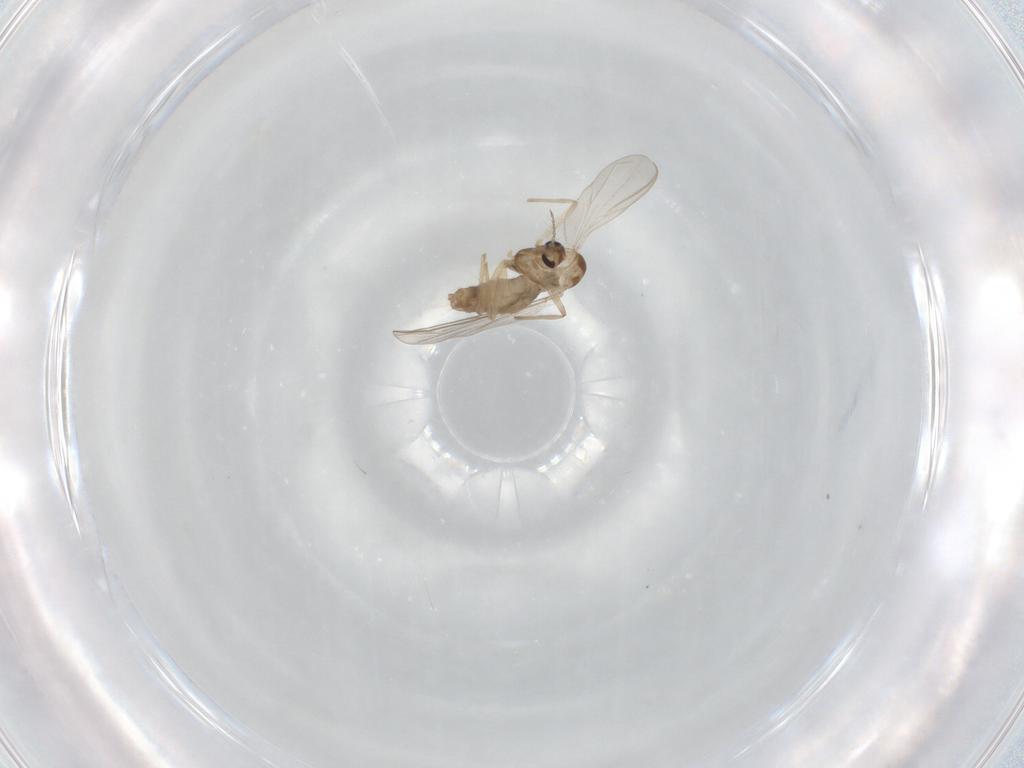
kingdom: Animalia
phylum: Arthropoda
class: Insecta
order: Diptera
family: Chironomidae
